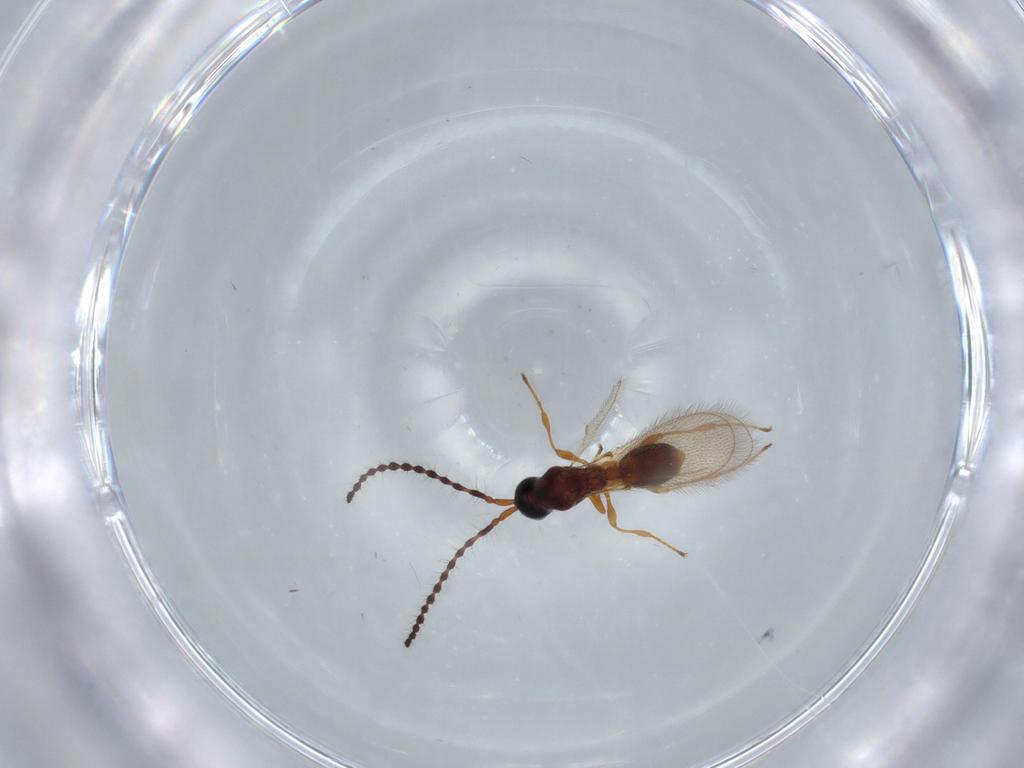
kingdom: Animalia
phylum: Arthropoda
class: Insecta
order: Hymenoptera
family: Diapriidae
